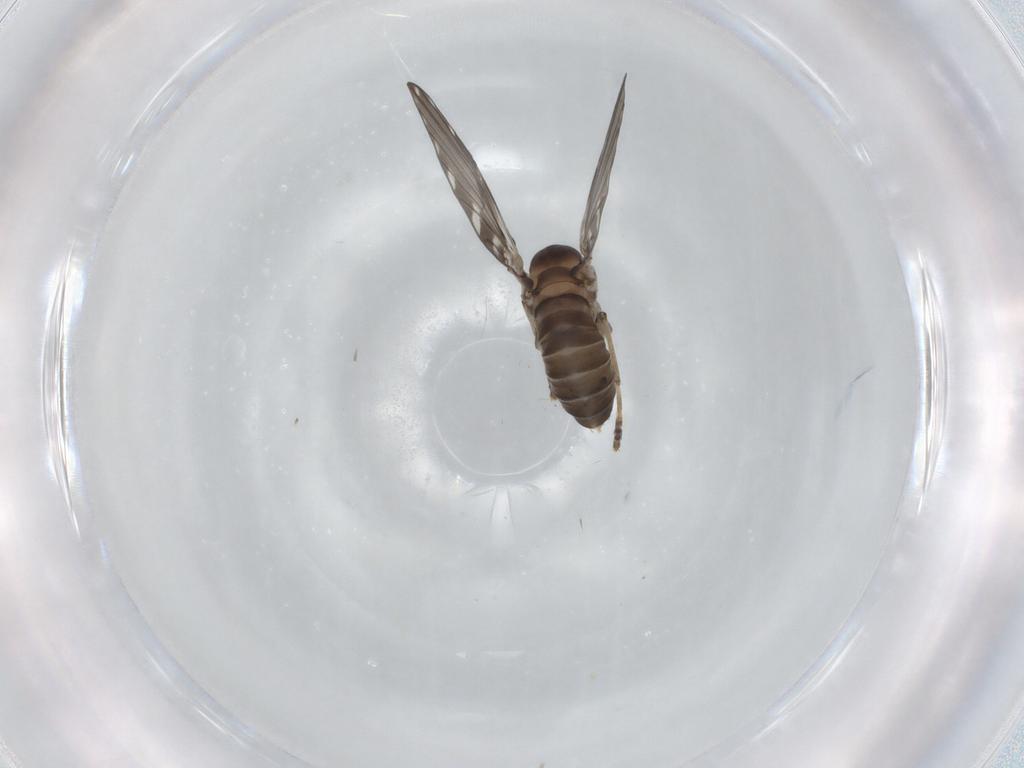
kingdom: Animalia
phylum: Arthropoda
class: Insecta
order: Diptera
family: Psychodidae
